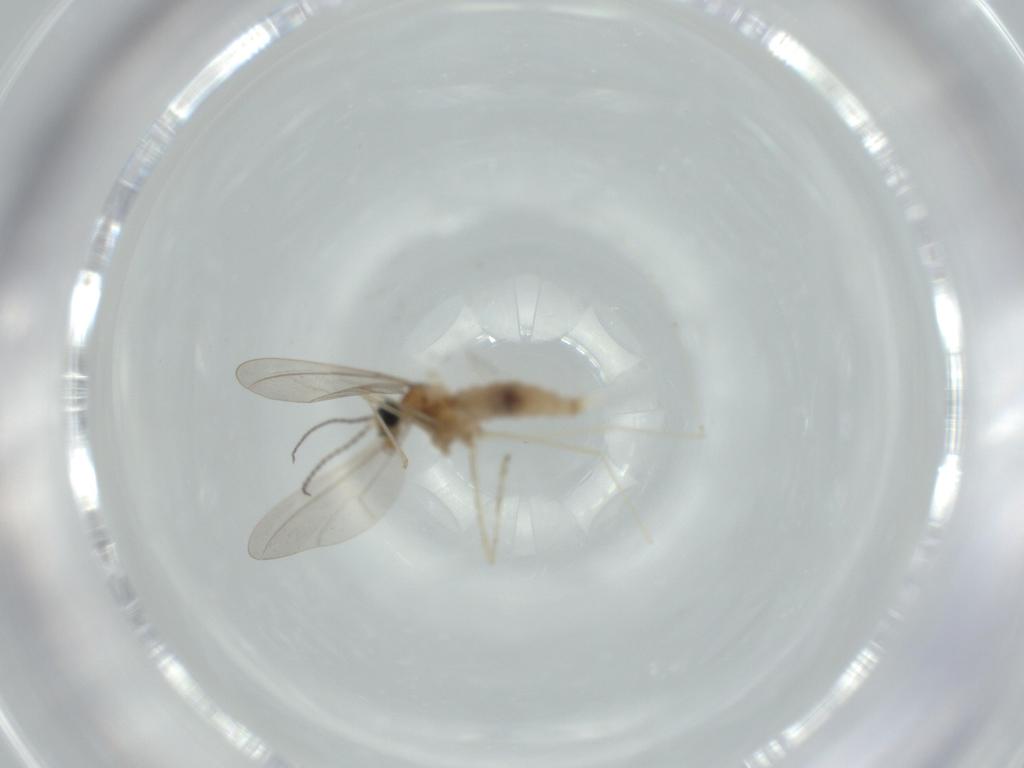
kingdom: Animalia
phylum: Arthropoda
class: Insecta
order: Diptera
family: Cecidomyiidae
